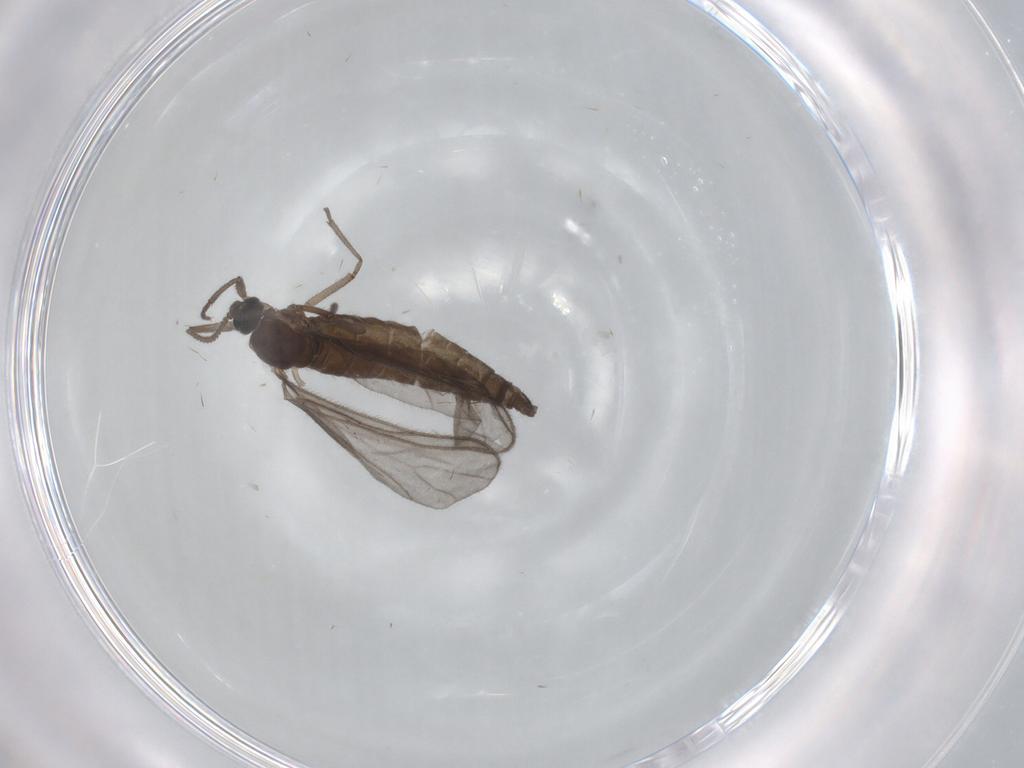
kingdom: Animalia
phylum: Arthropoda
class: Insecta
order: Diptera
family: Sciaridae
